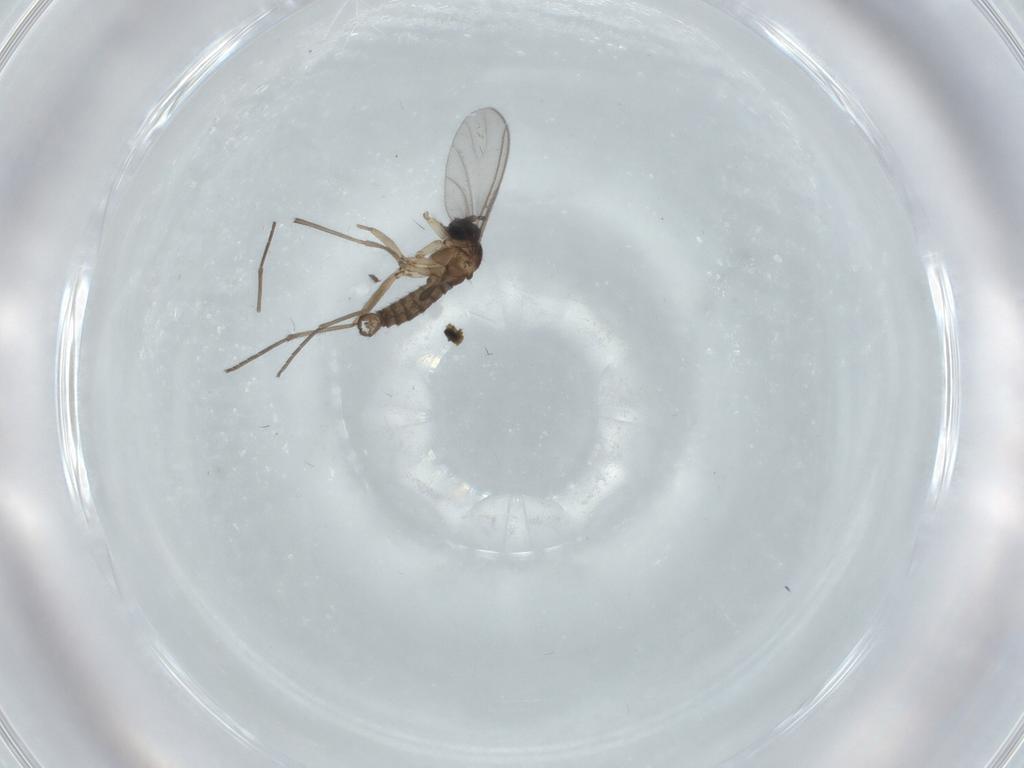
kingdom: Animalia
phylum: Arthropoda
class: Insecta
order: Diptera
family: Sciaridae
